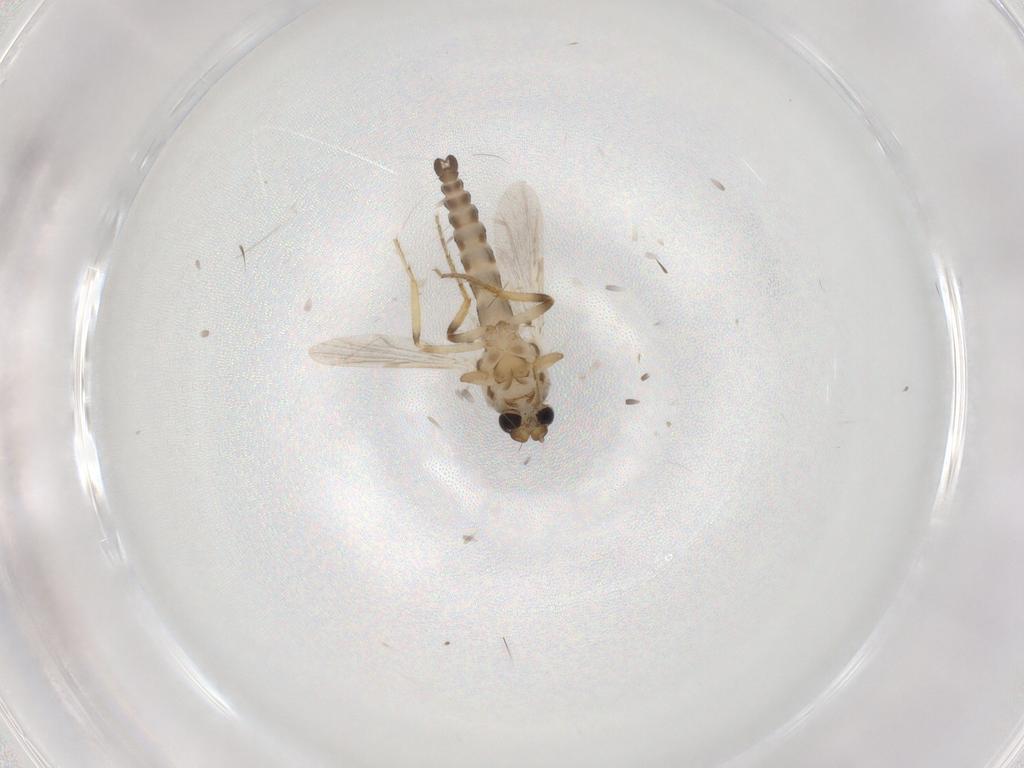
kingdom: Animalia
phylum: Arthropoda
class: Insecta
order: Diptera
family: Ceratopogonidae
